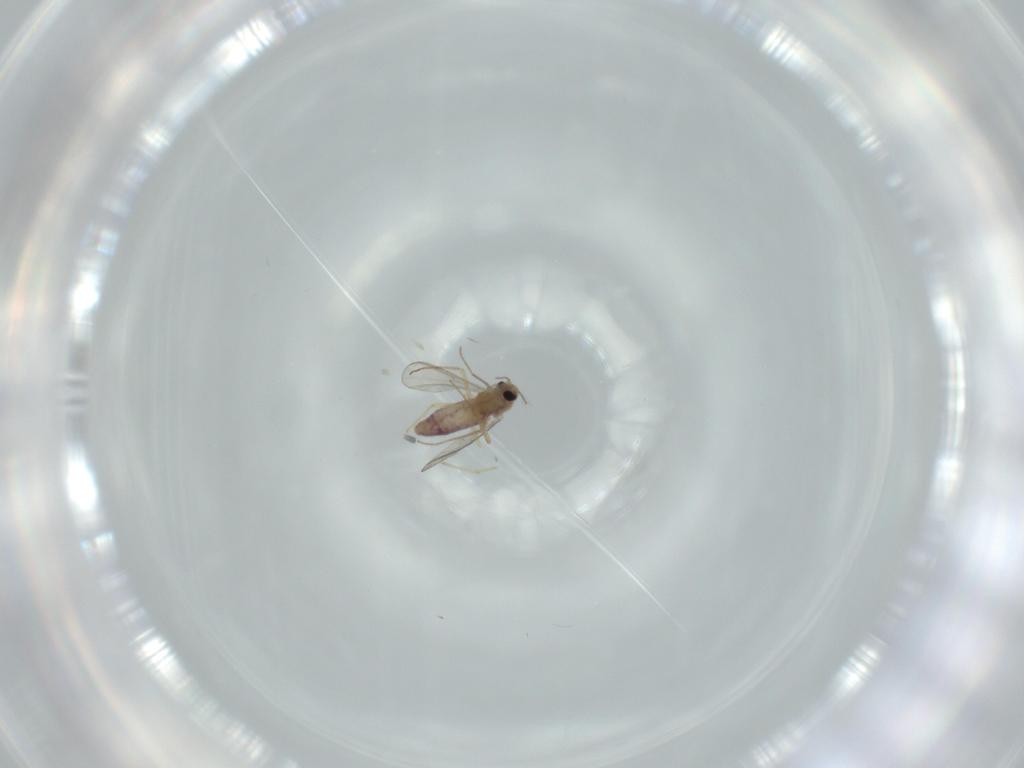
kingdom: Animalia
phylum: Arthropoda
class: Insecta
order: Diptera
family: Chironomidae
